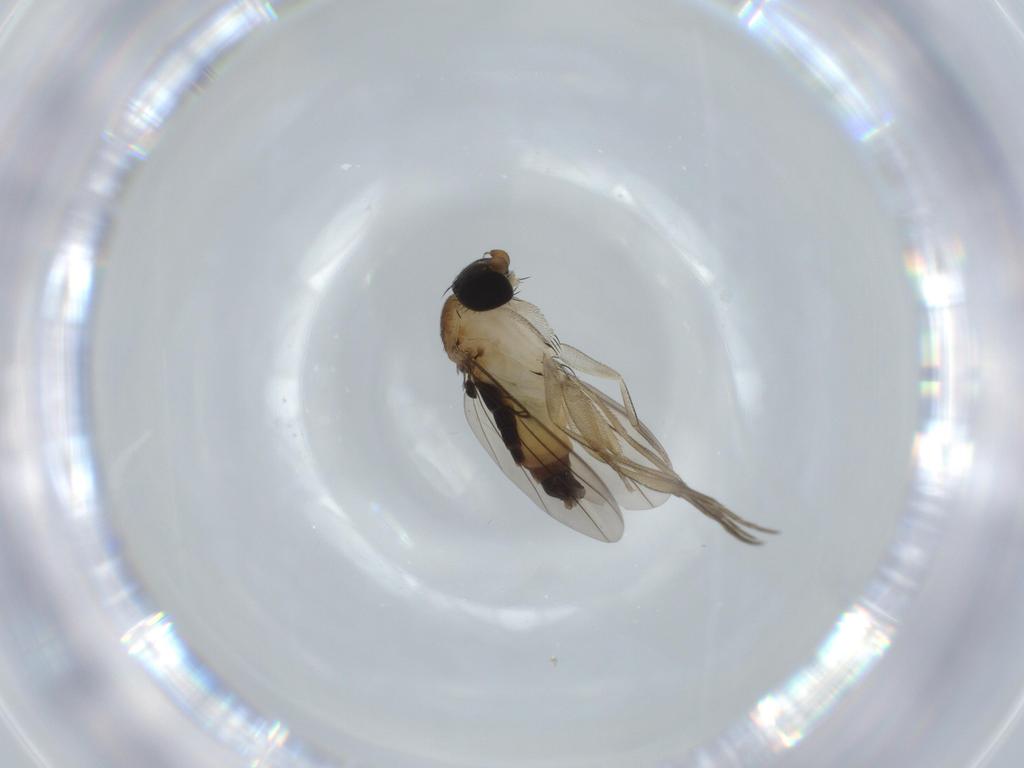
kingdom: Animalia
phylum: Arthropoda
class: Insecta
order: Diptera
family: Phoridae
